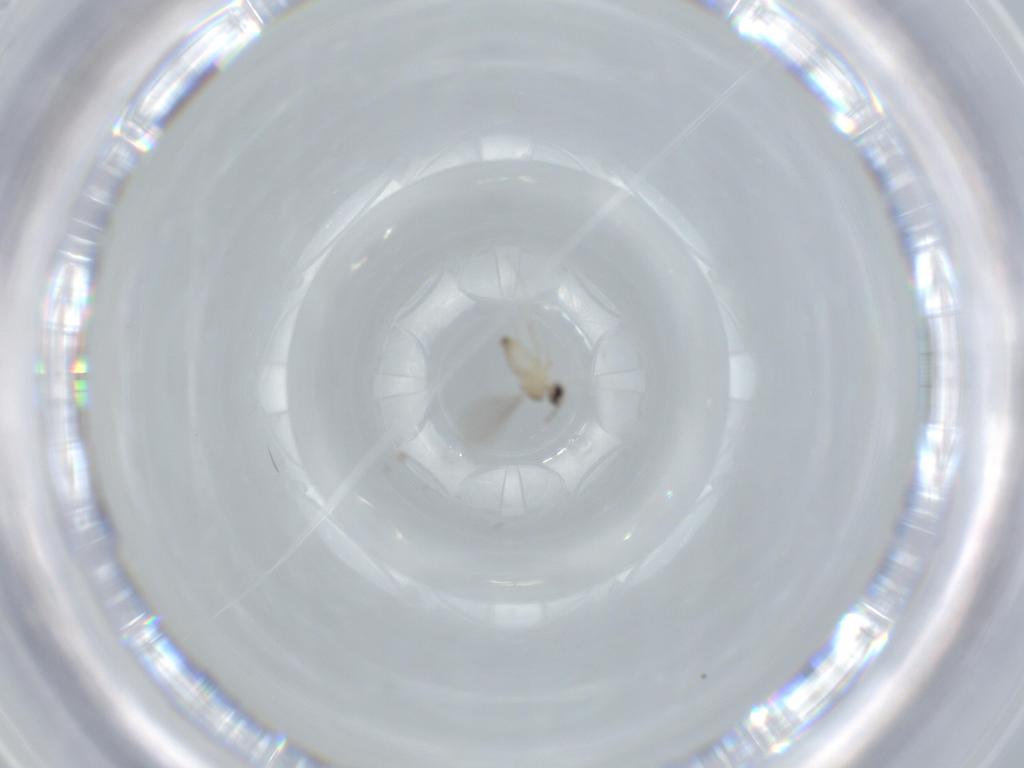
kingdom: Animalia
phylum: Arthropoda
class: Insecta
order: Diptera
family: Cecidomyiidae
